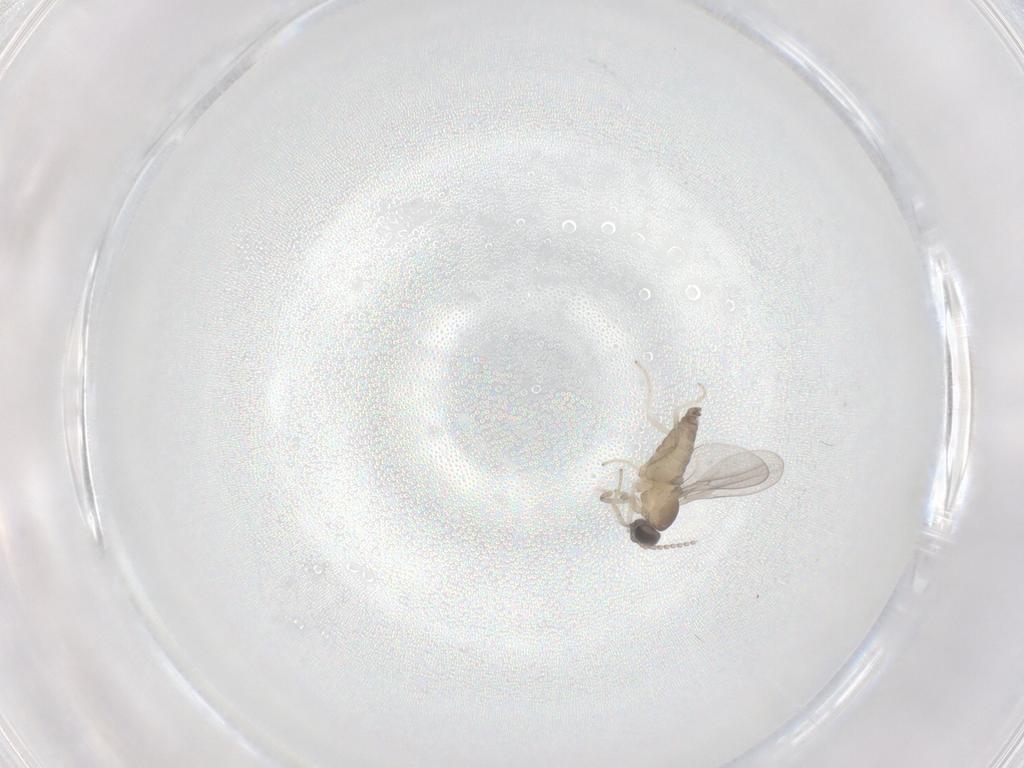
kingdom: Animalia
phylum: Arthropoda
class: Insecta
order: Diptera
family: Cecidomyiidae
